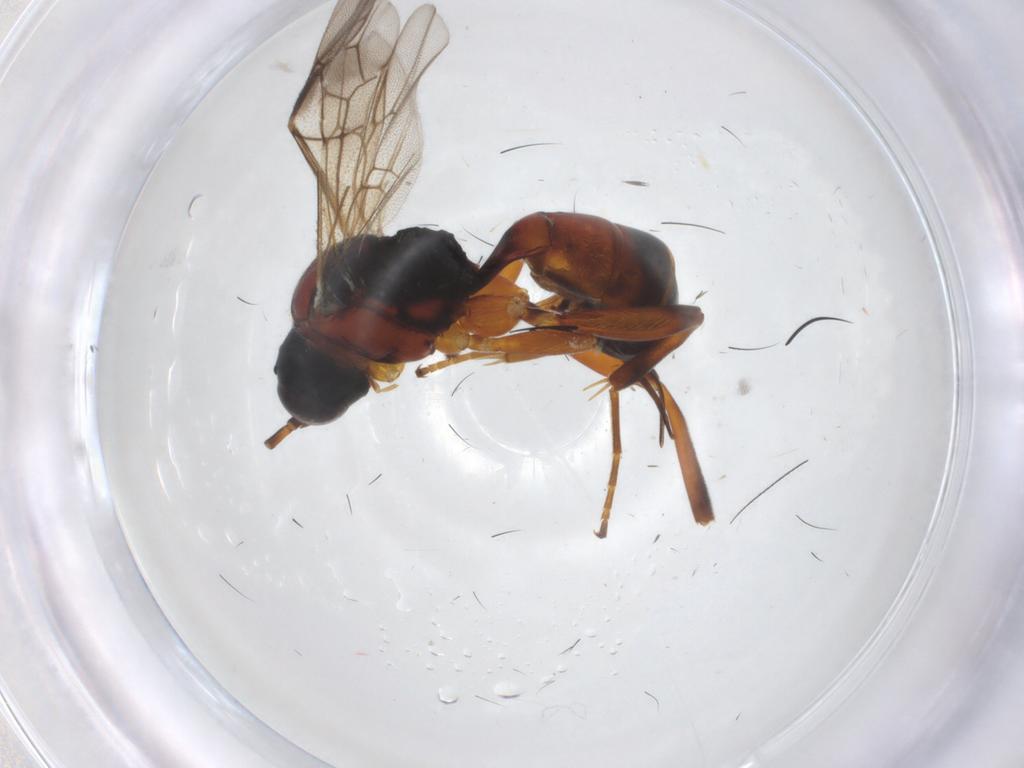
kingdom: Animalia
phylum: Arthropoda
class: Insecta
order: Hymenoptera
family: Ichneumonidae
